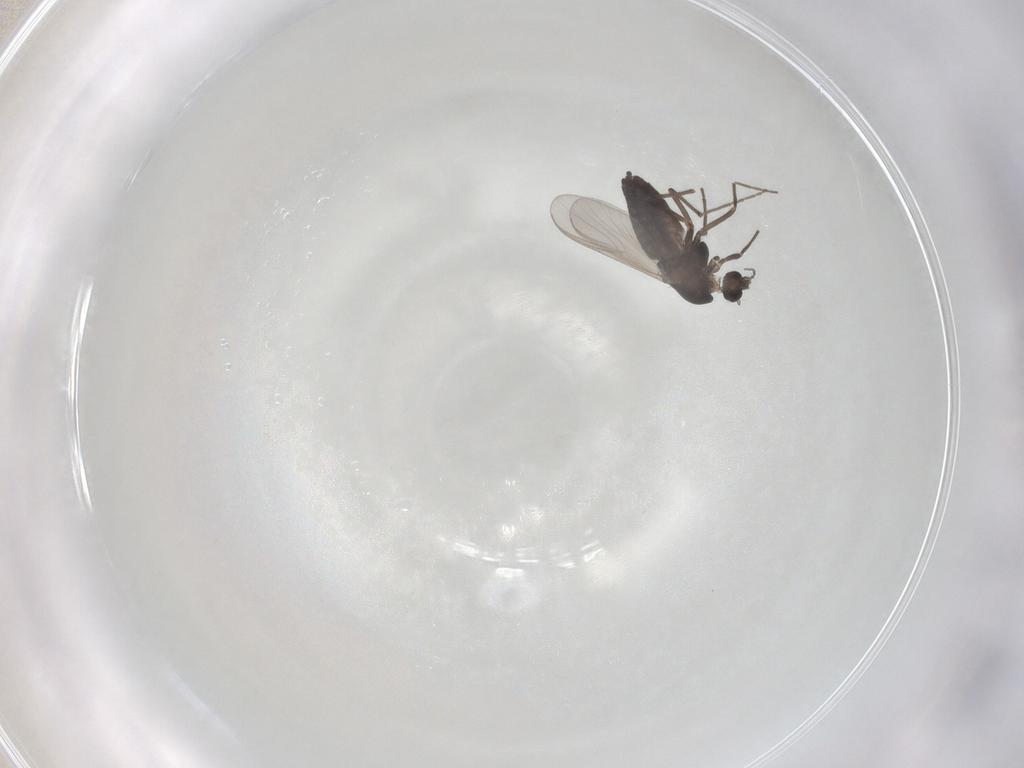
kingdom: Animalia
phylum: Arthropoda
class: Insecta
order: Diptera
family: Chironomidae
